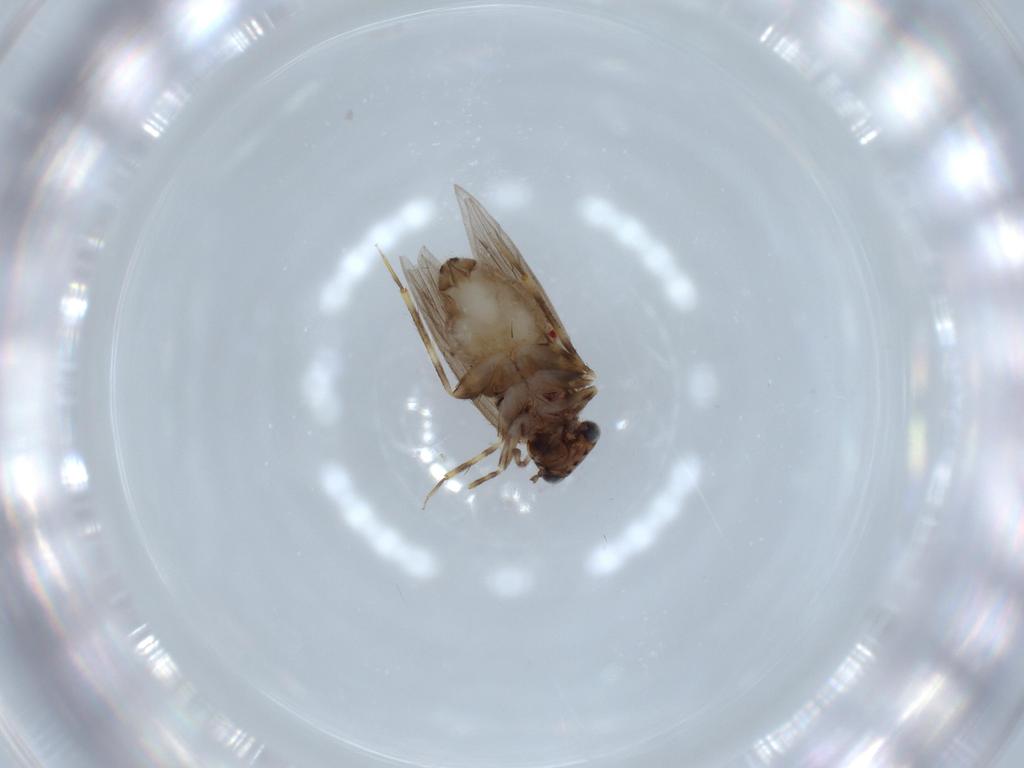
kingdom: Animalia
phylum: Arthropoda
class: Insecta
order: Psocodea
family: Lepidopsocidae
